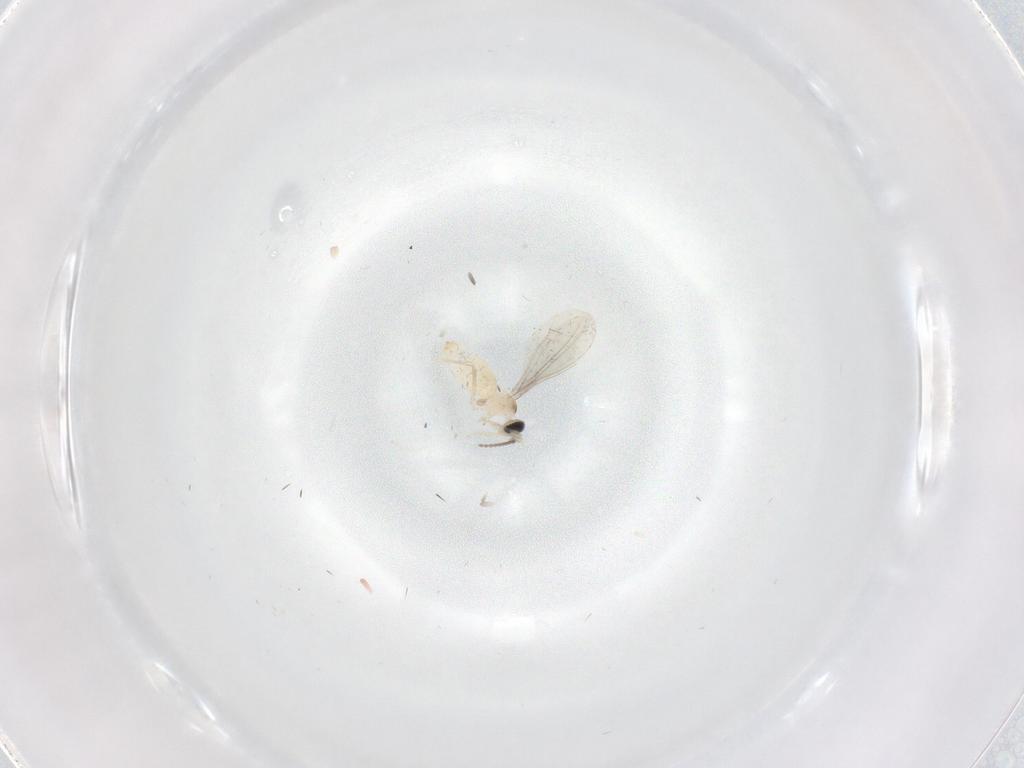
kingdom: Animalia
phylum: Arthropoda
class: Insecta
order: Diptera
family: Cecidomyiidae
